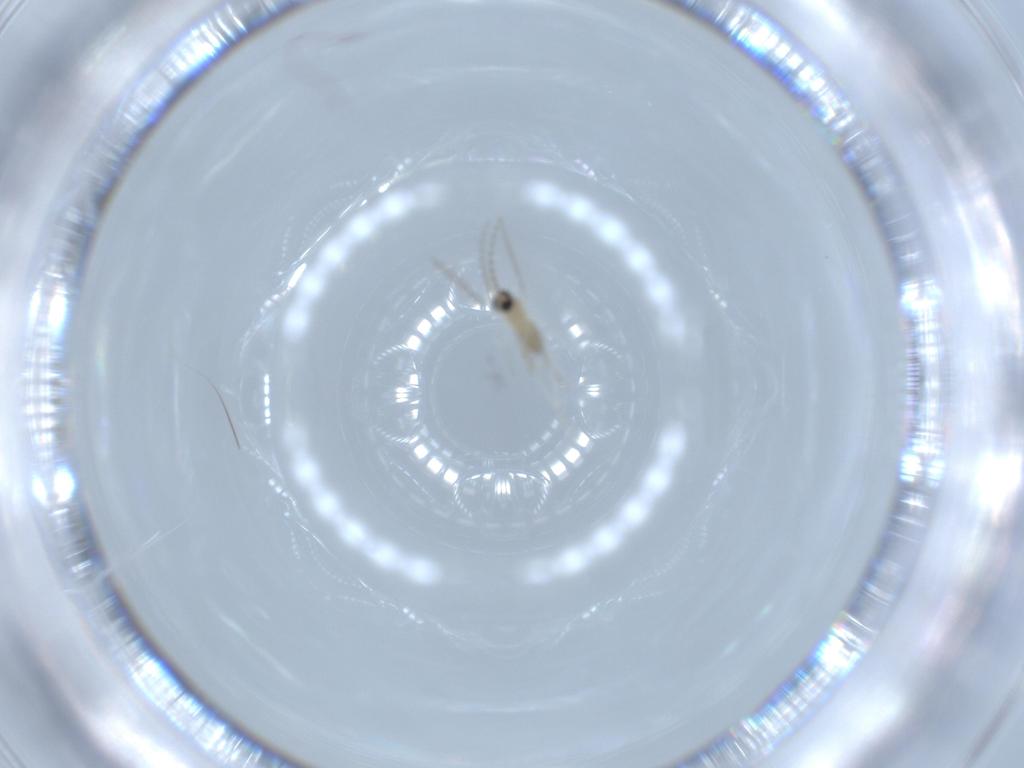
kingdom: Animalia
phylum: Arthropoda
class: Insecta
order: Diptera
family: Cecidomyiidae
